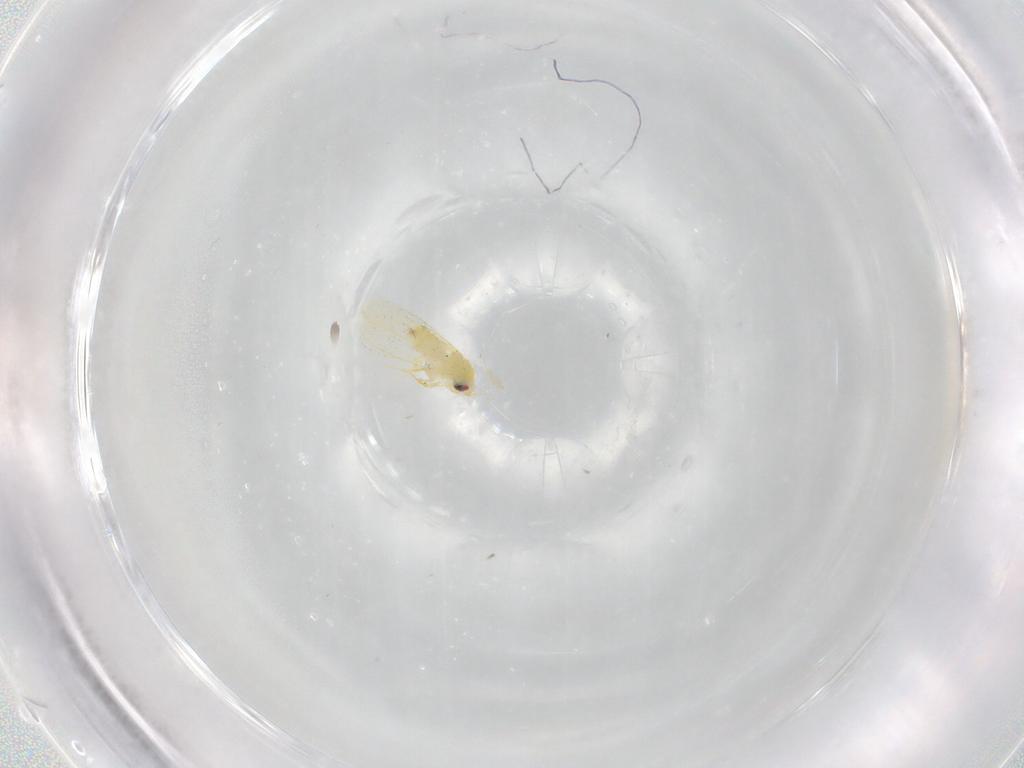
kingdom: Animalia
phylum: Arthropoda
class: Insecta
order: Hemiptera
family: Aleyrodidae
